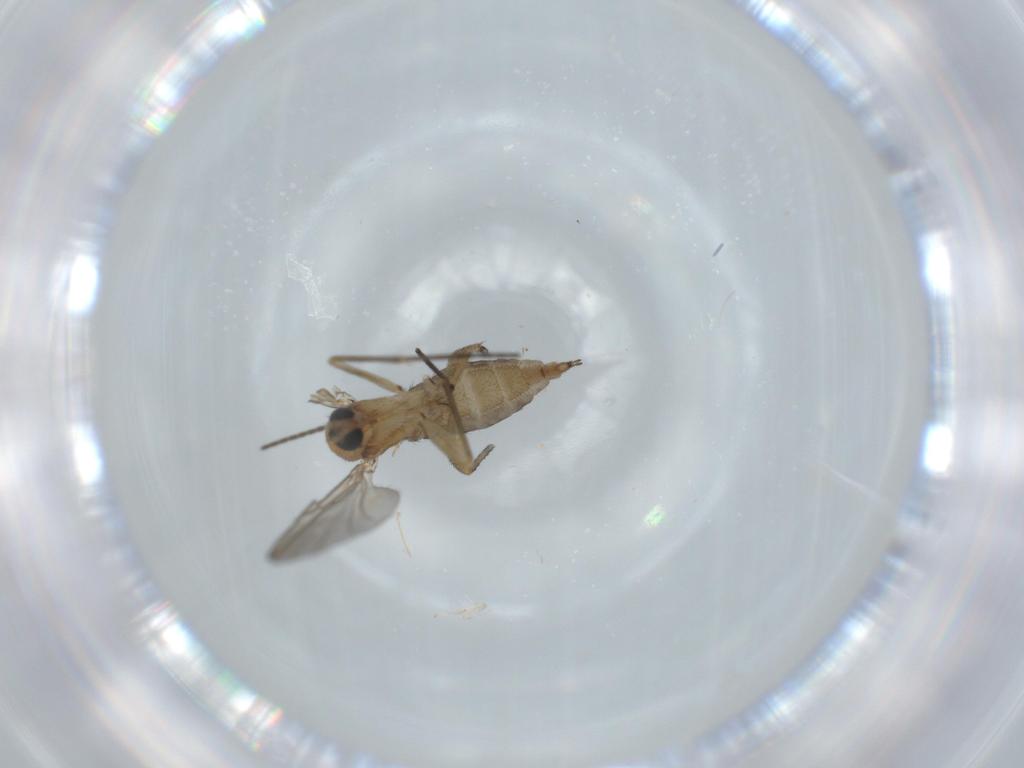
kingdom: Animalia
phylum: Arthropoda
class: Insecta
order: Diptera
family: Sciaridae
